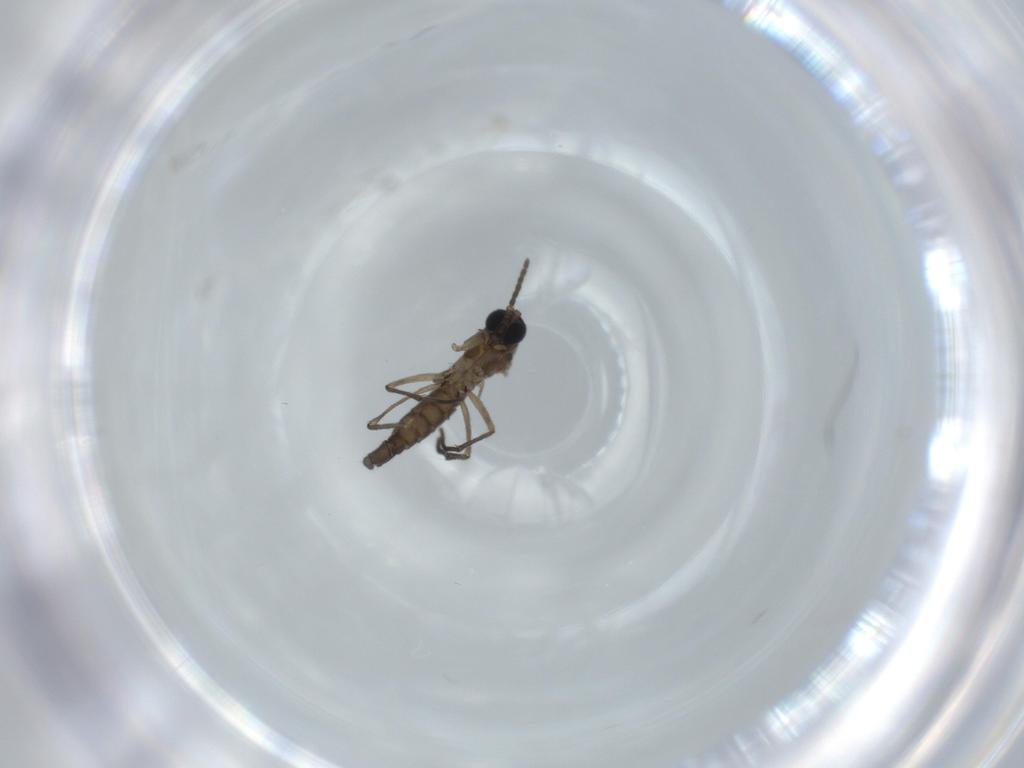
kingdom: Animalia
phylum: Arthropoda
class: Insecta
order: Diptera
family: Sciaridae
